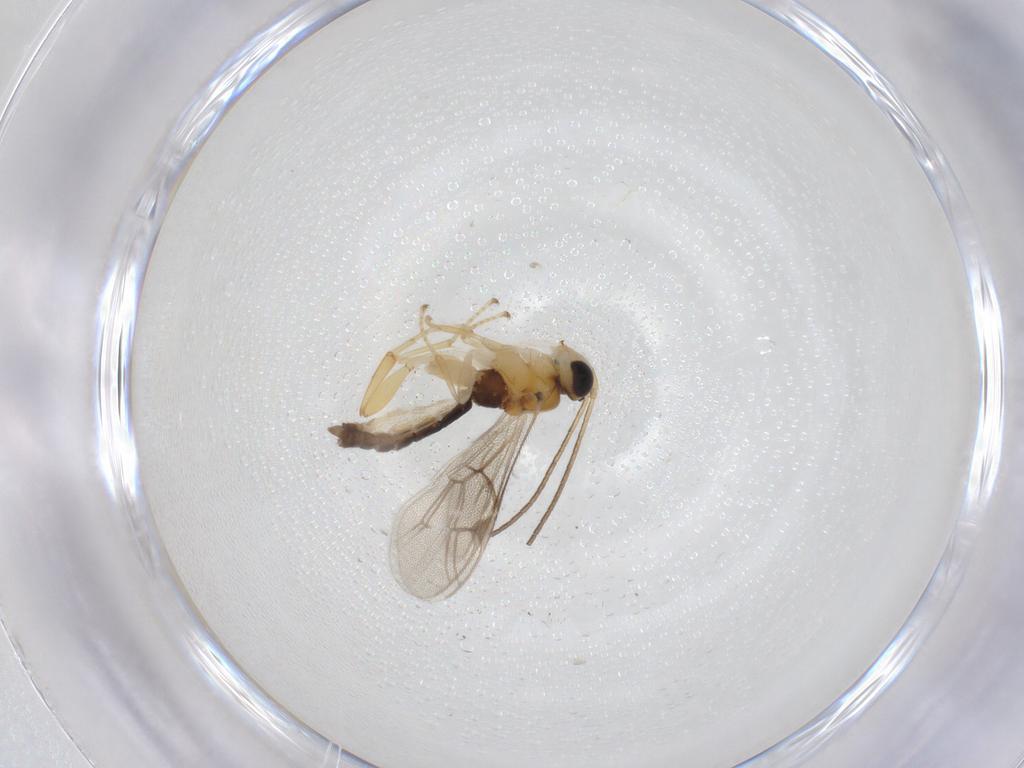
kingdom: Animalia
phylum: Arthropoda
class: Insecta
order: Hymenoptera
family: Ichneumonidae
